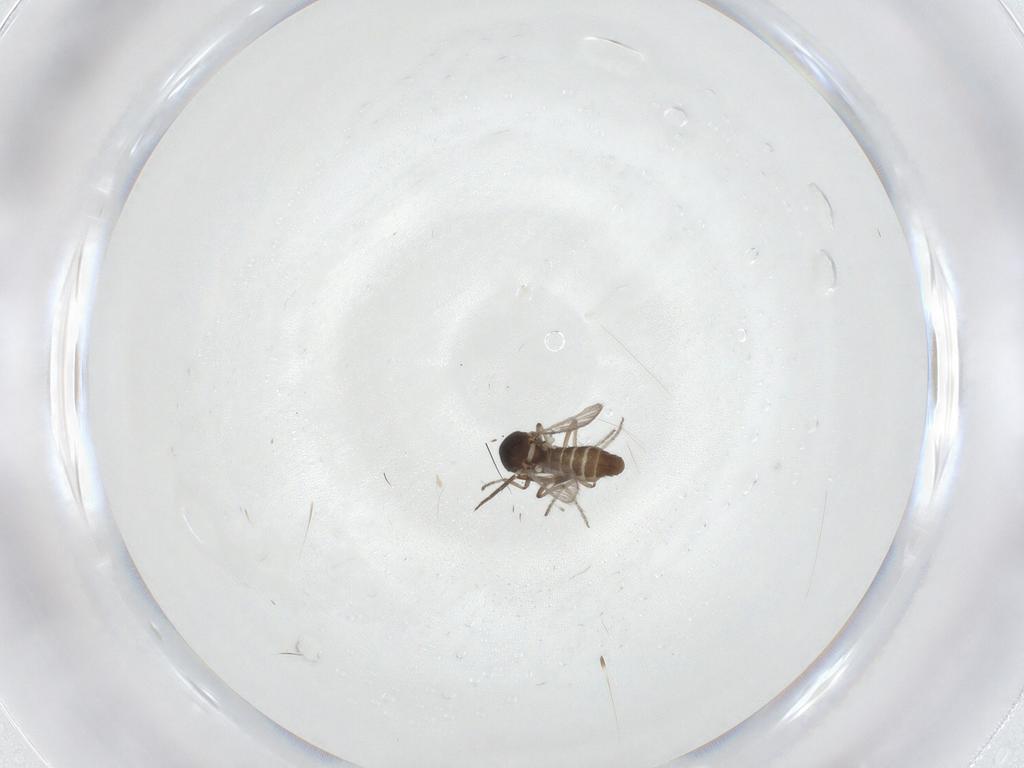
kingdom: Animalia
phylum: Arthropoda
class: Insecta
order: Diptera
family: Ceratopogonidae
